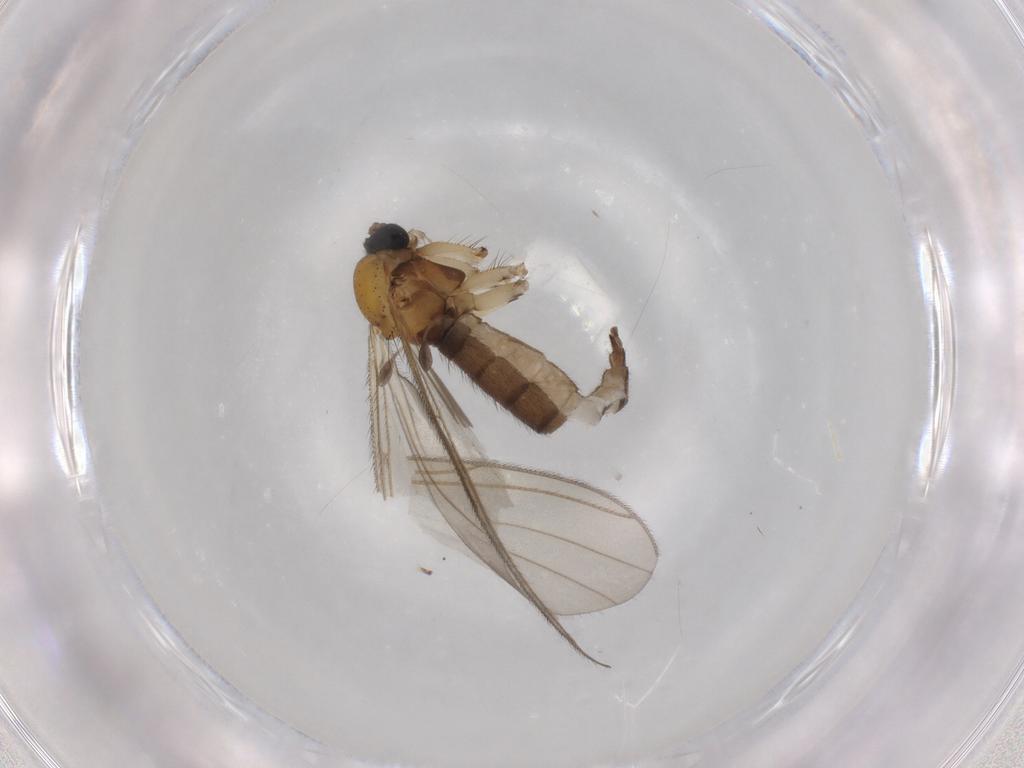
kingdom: Animalia
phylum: Arthropoda
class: Insecta
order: Diptera
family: Sciaridae
